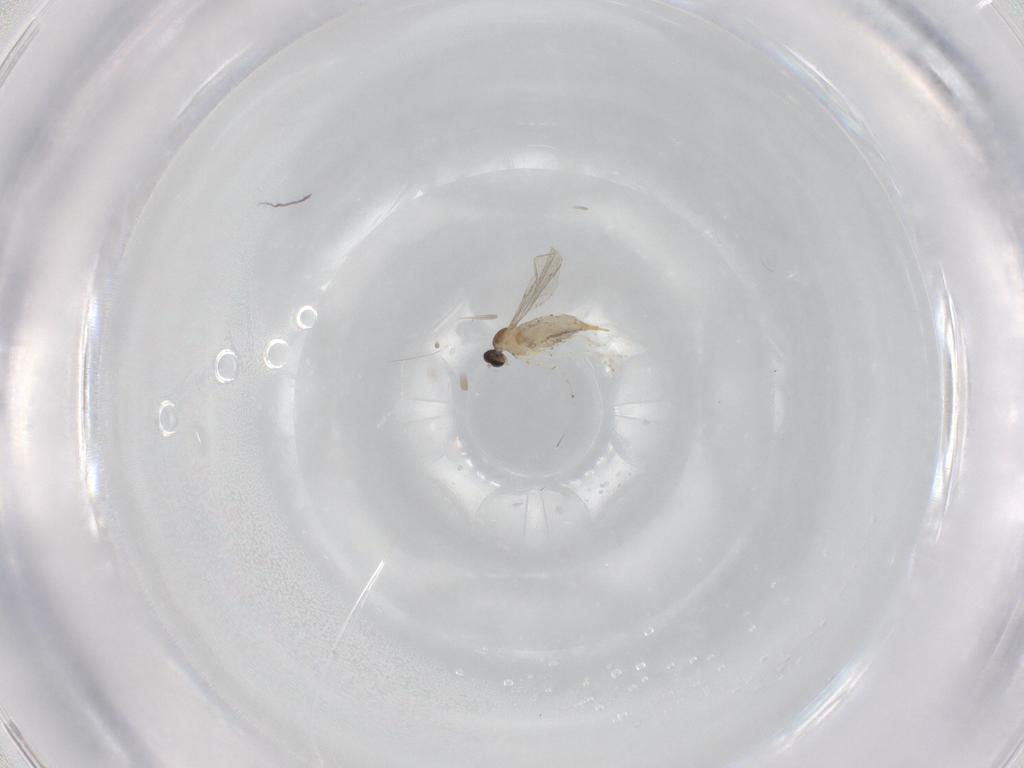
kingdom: Animalia
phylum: Arthropoda
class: Insecta
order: Diptera
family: Cecidomyiidae
